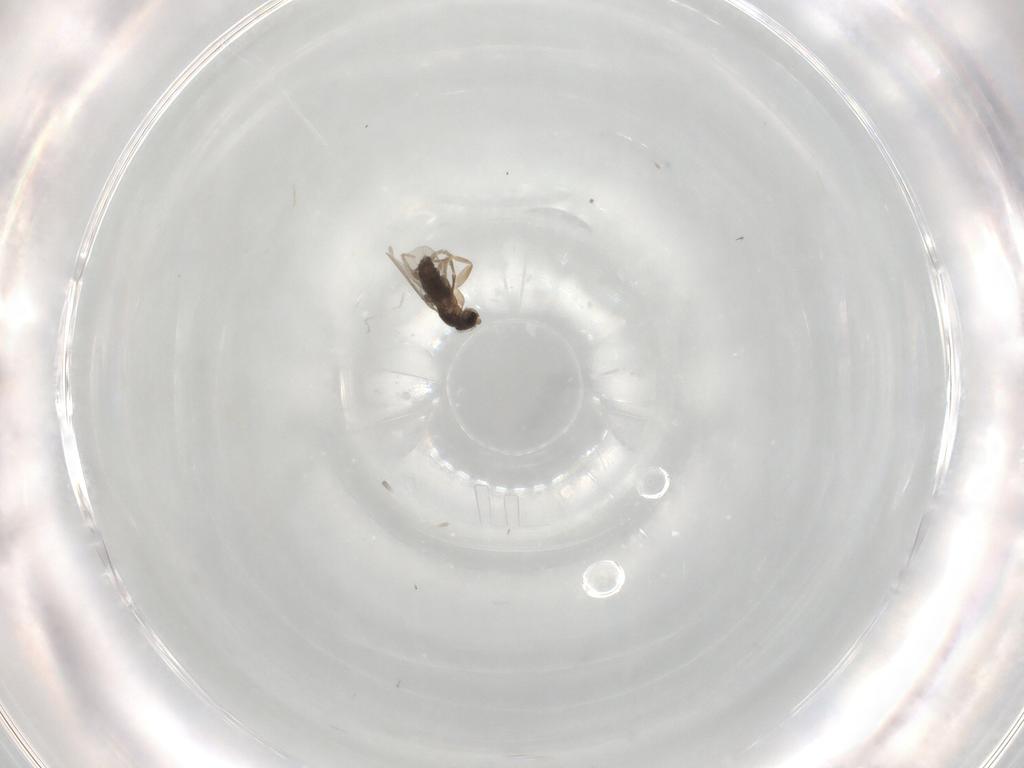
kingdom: Animalia
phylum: Arthropoda
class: Insecta
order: Diptera
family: Phoridae
